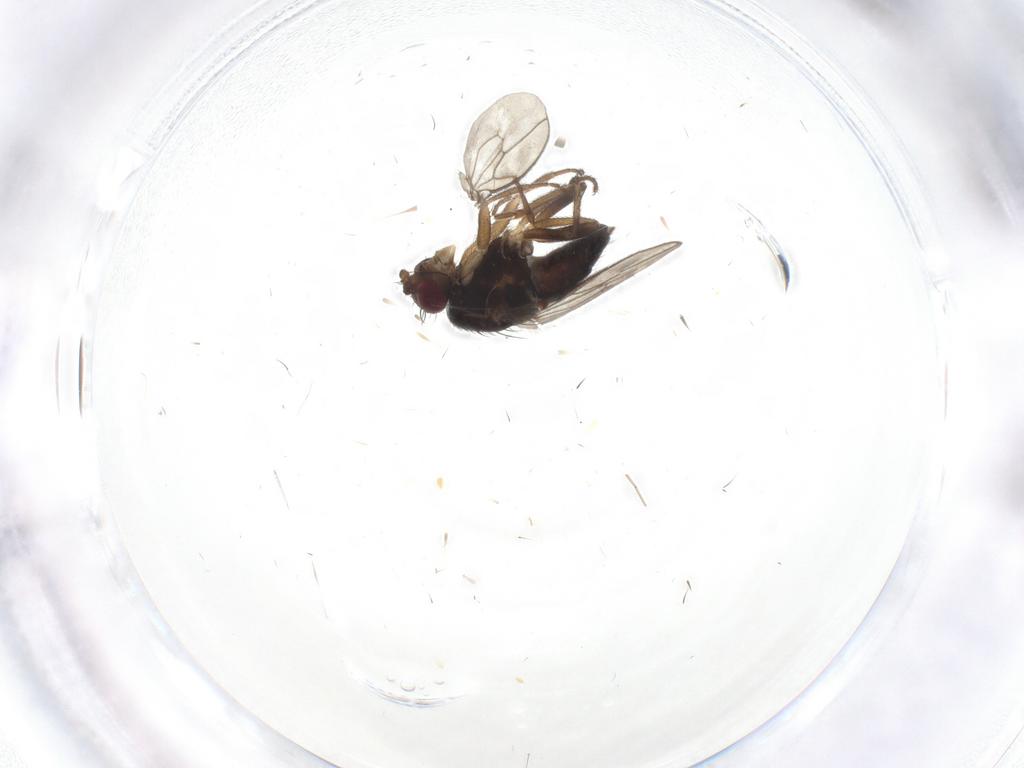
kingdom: Animalia
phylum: Arthropoda
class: Insecta
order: Diptera
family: Sphaeroceridae
